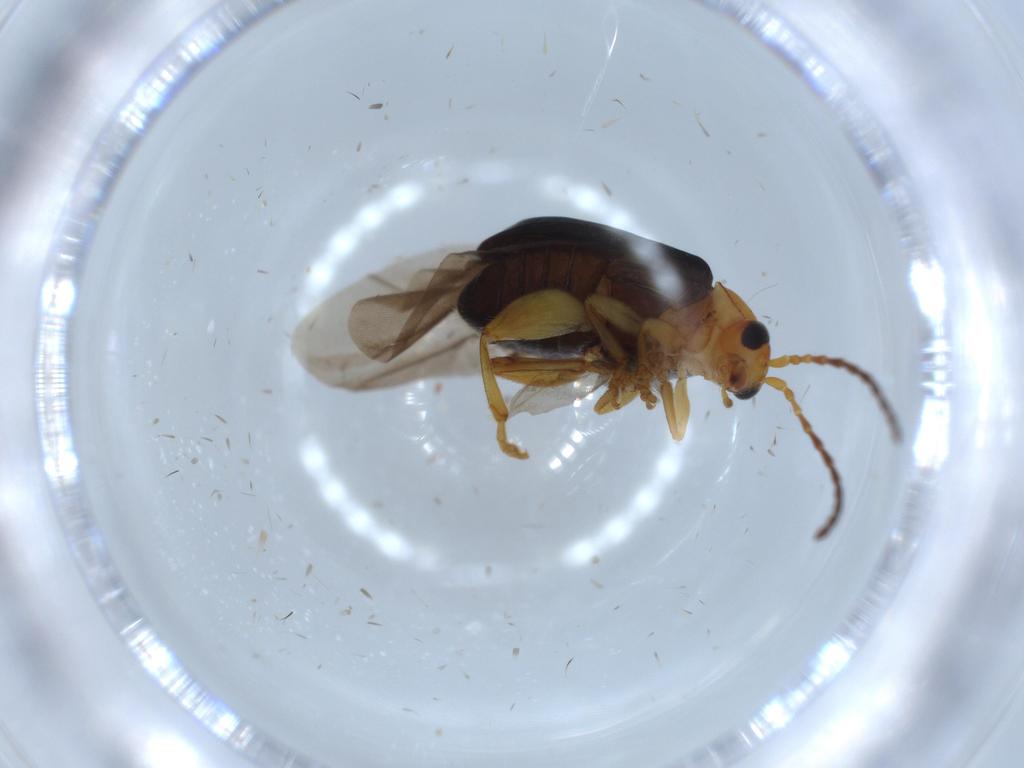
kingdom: Animalia
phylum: Arthropoda
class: Insecta
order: Coleoptera
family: Chrysomelidae
